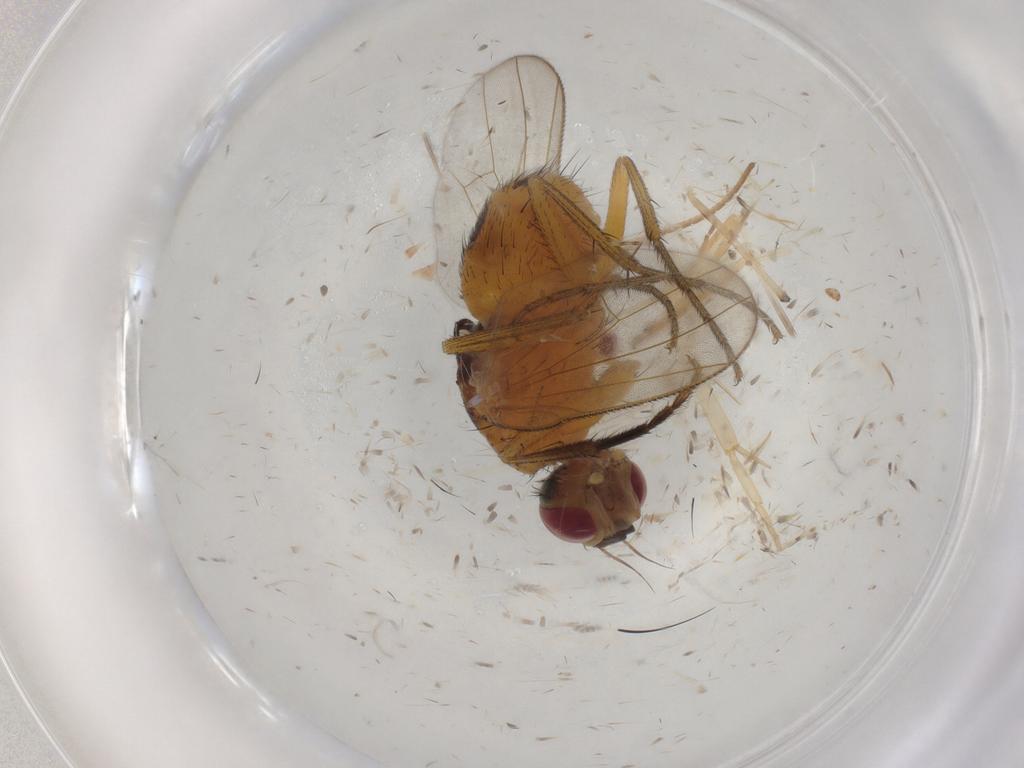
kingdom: Animalia
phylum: Arthropoda
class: Insecta
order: Diptera
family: Muscidae
